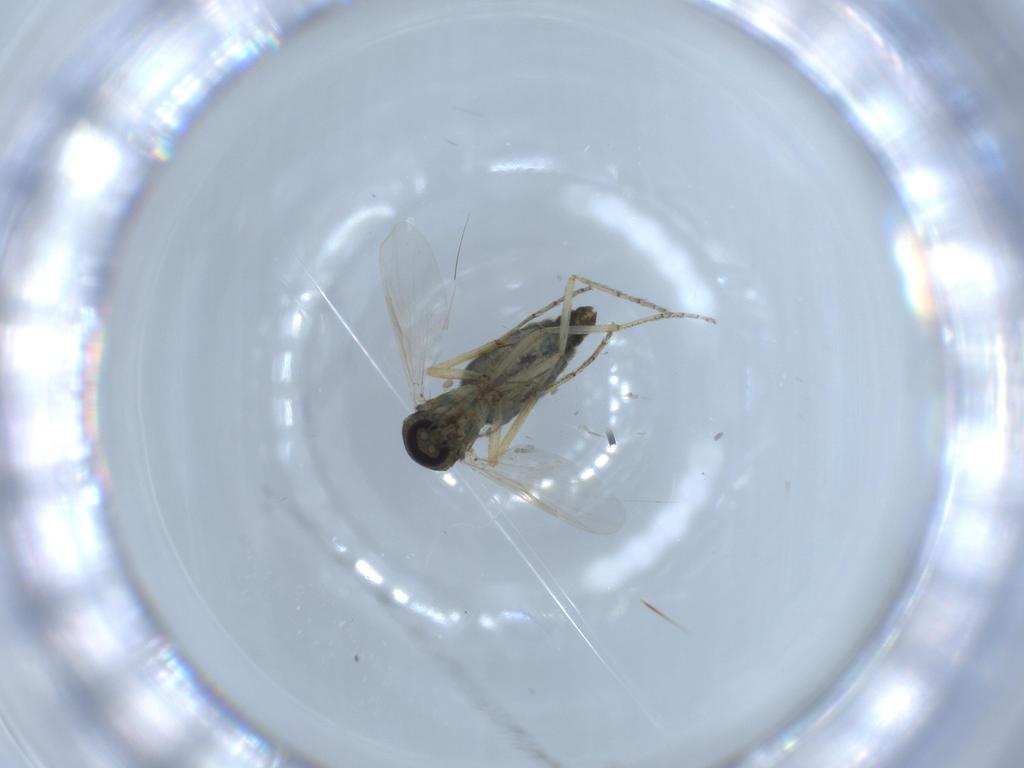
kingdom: Animalia
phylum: Arthropoda
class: Insecta
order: Diptera
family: Ceratopogonidae
